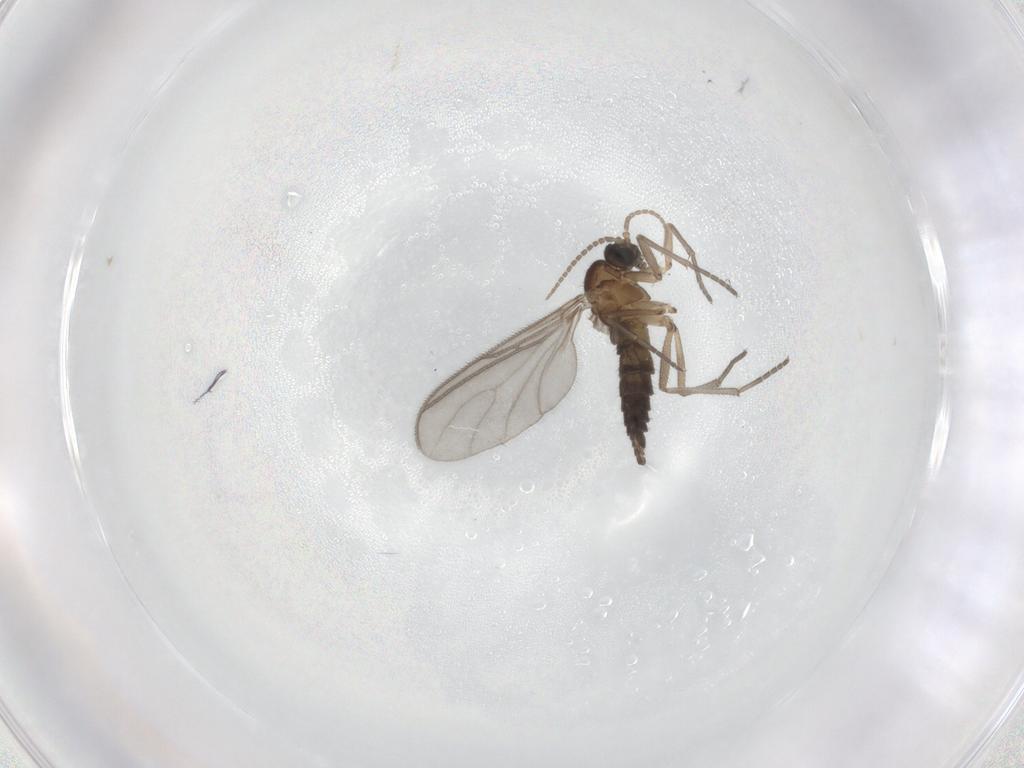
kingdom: Animalia
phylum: Arthropoda
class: Insecta
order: Diptera
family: Sciaridae
